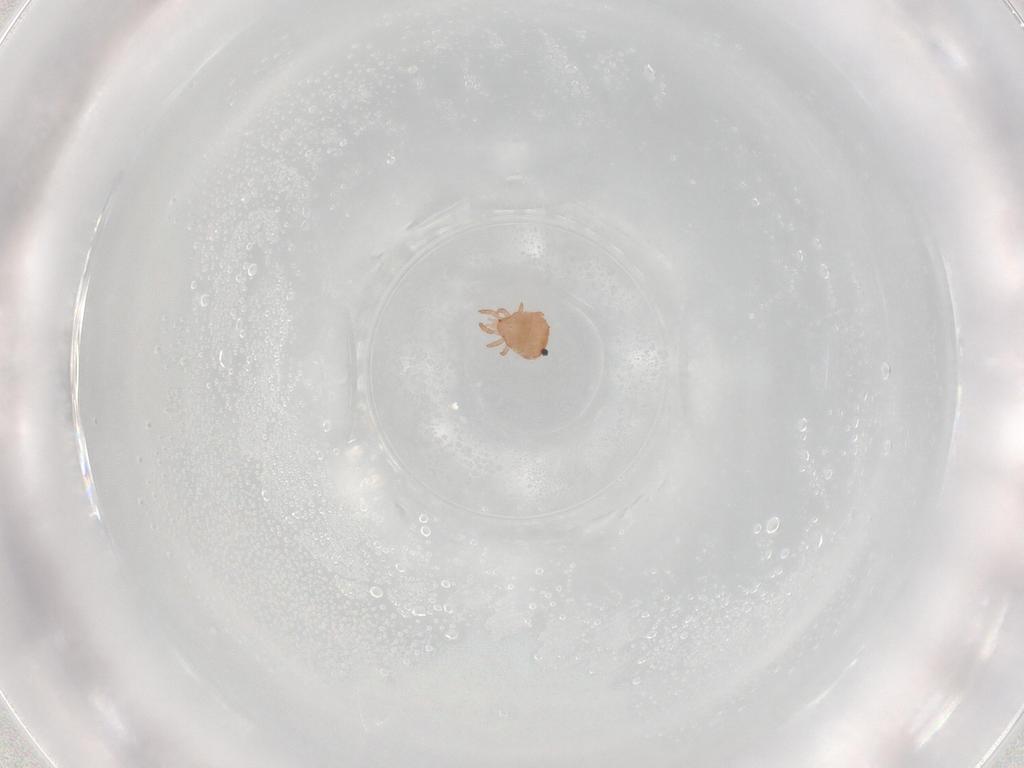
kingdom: Animalia
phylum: Arthropoda
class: Arachnida
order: Mesostigmata
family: Zerconidae
